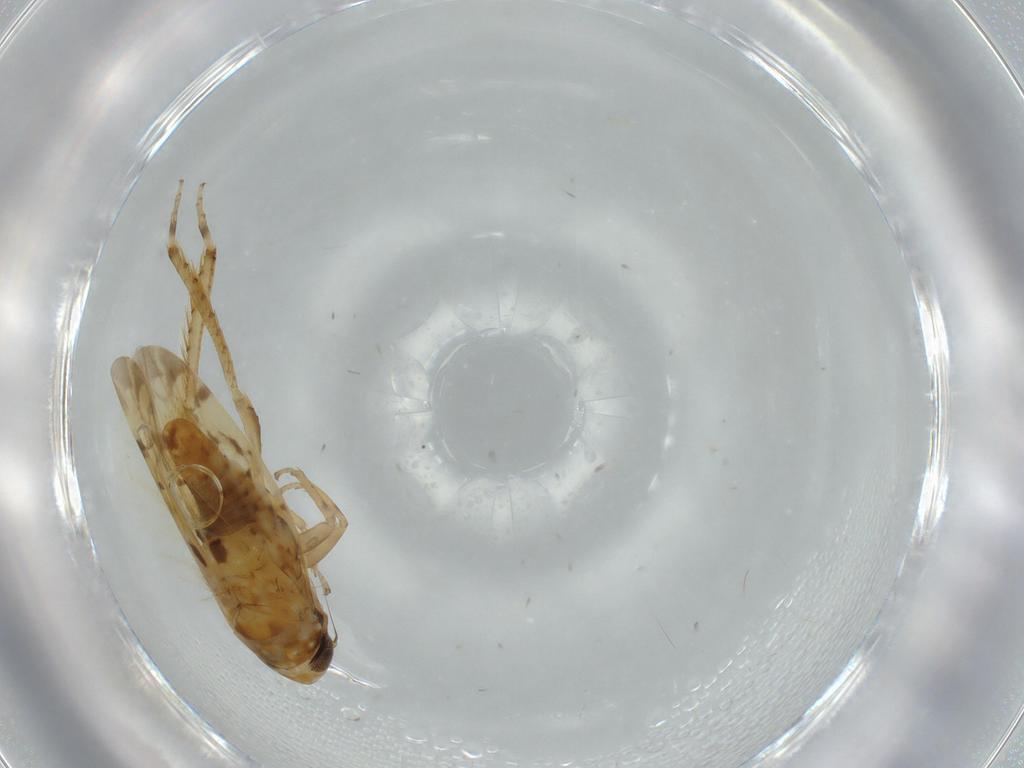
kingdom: Animalia
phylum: Arthropoda
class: Insecta
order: Hemiptera
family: Cicadellidae
